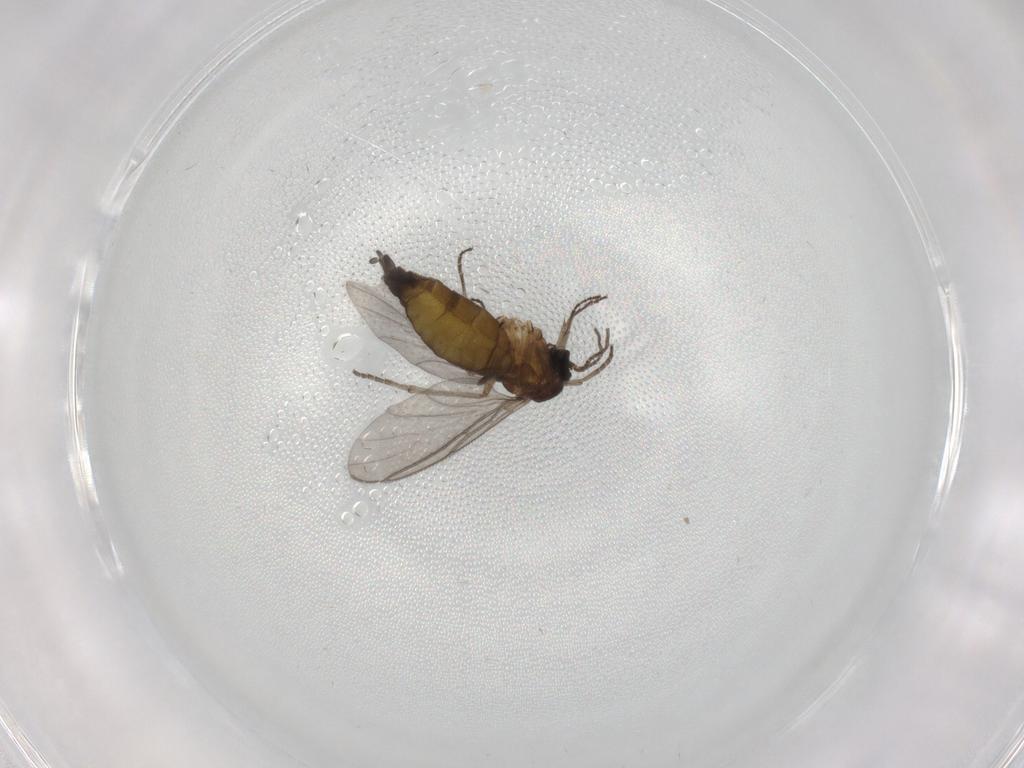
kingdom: Animalia
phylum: Arthropoda
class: Insecta
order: Diptera
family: Sciaridae
